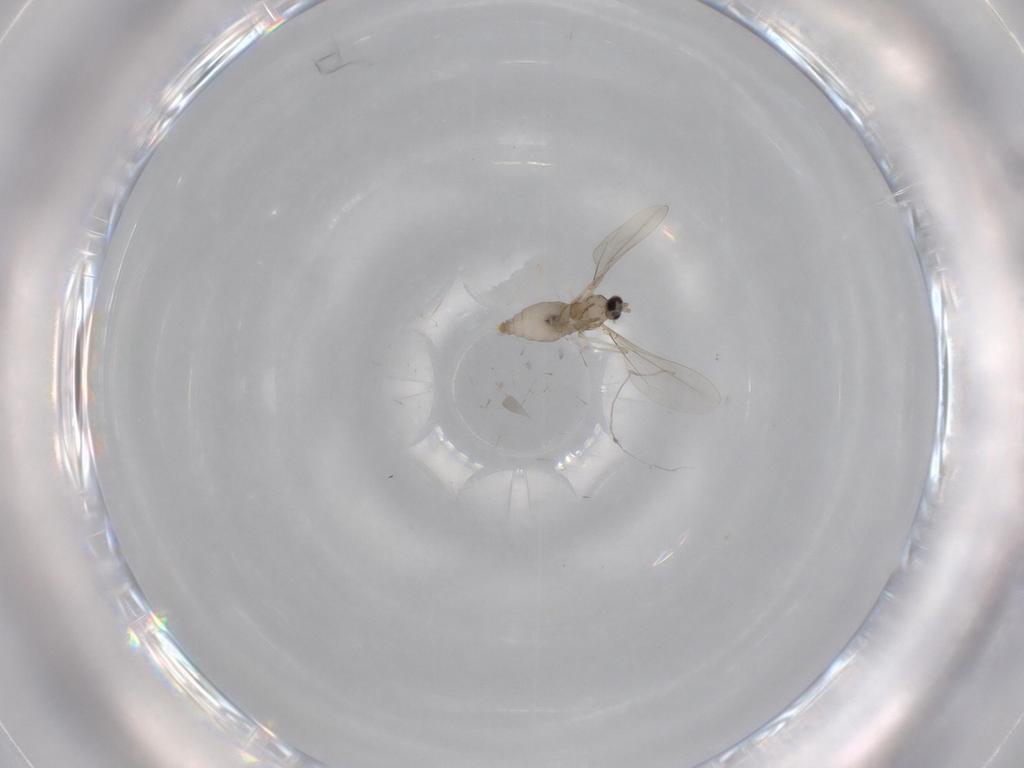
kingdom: Animalia
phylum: Arthropoda
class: Insecta
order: Diptera
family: Cecidomyiidae
